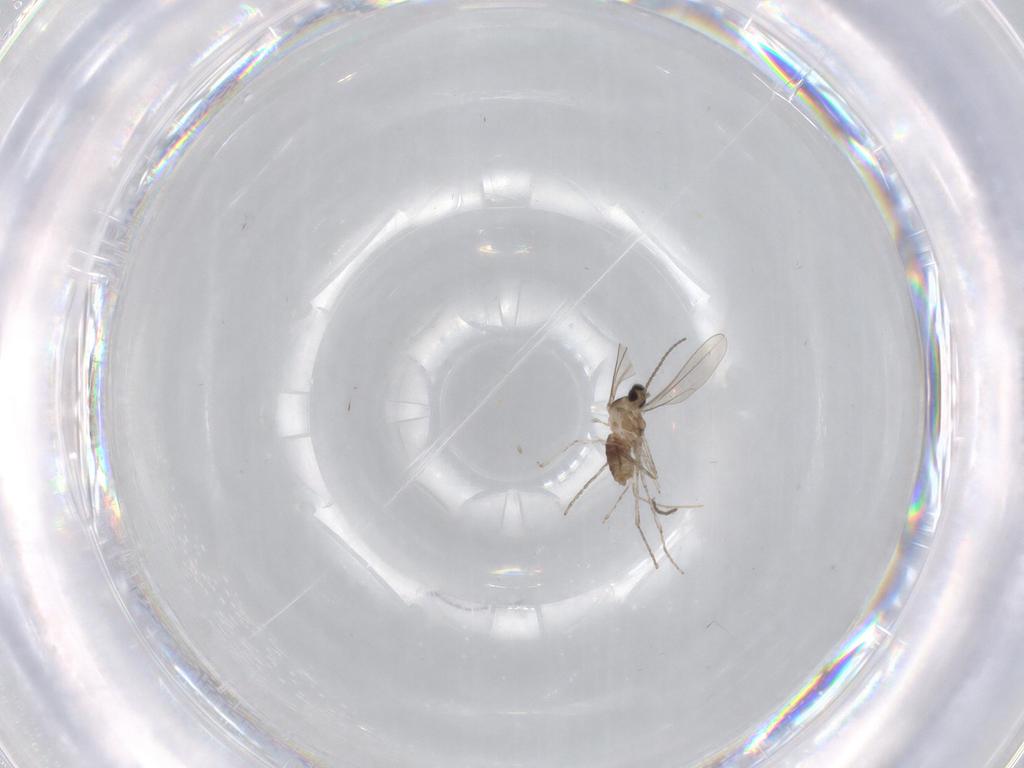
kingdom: Animalia
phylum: Arthropoda
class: Insecta
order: Diptera
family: Cecidomyiidae
